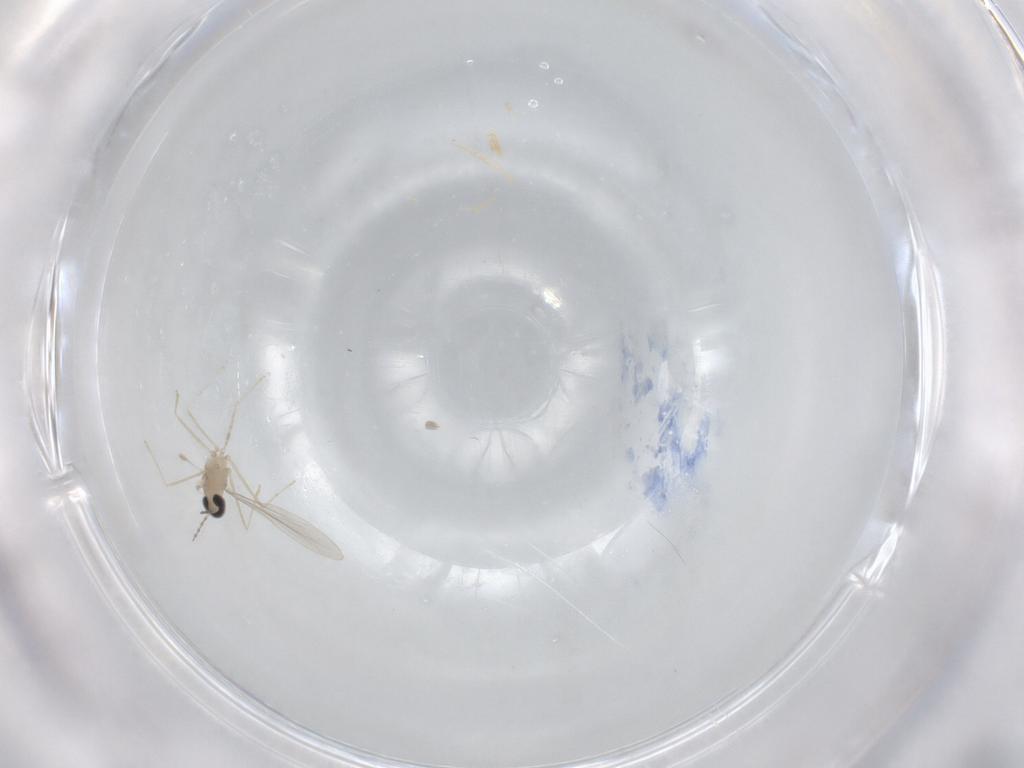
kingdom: Animalia
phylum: Arthropoda
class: Insecta
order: Diptera
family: Cecidomyiidae
